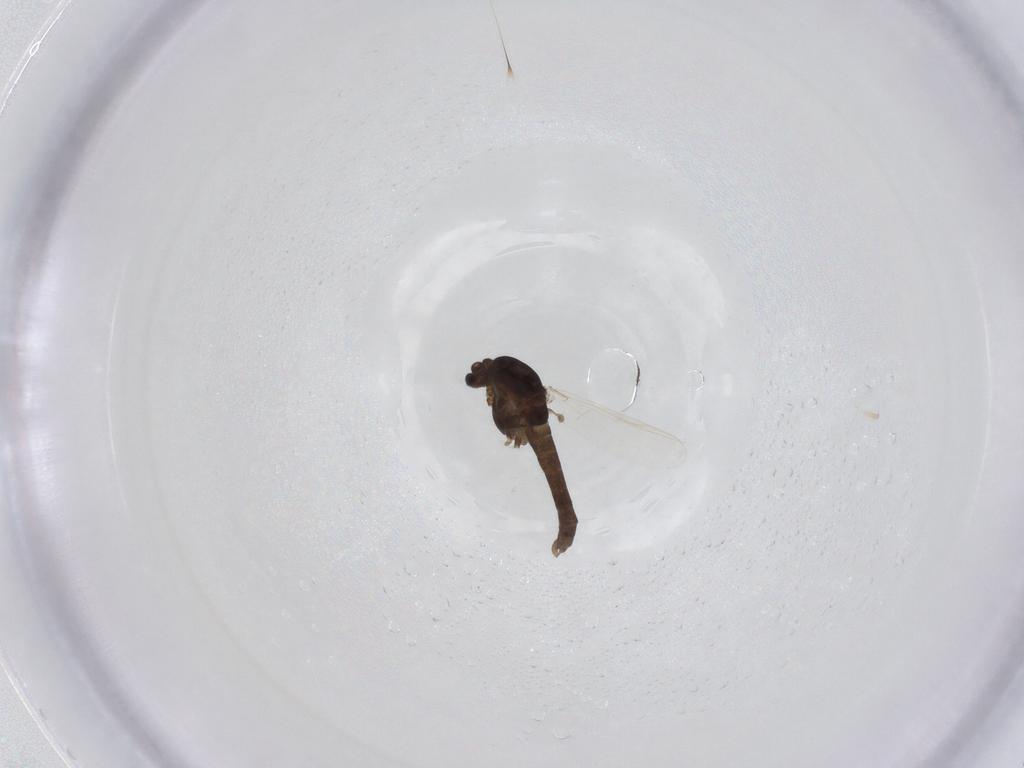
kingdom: Animalia
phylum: Arthropoda
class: Insecta
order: Diptera
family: Chironomidae
